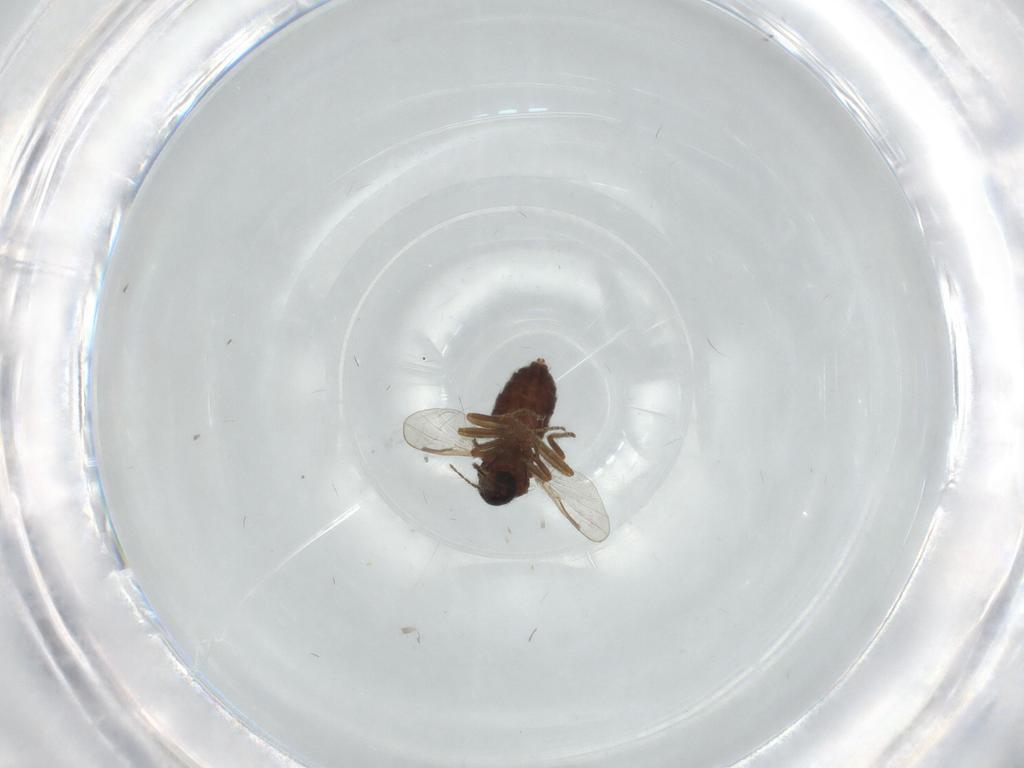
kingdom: Animalia
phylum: Arthropoda
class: Insecta
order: Diptera
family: Ceratopogonidae
